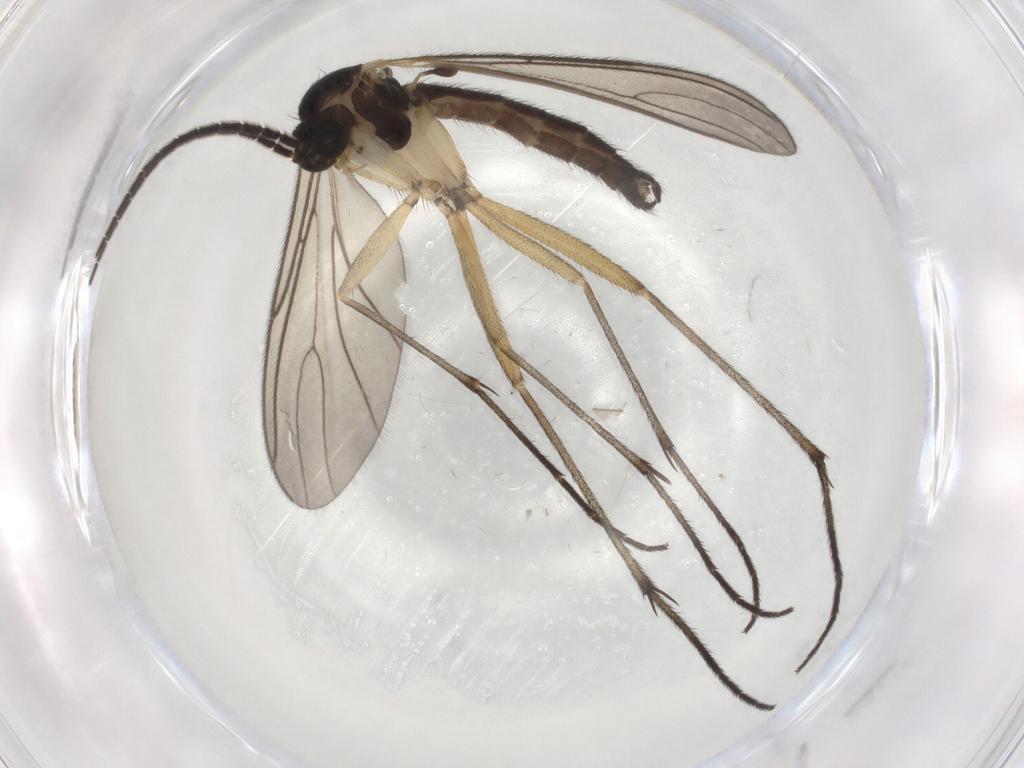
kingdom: Animalia
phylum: Arthropoda
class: Insecta
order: Diptera
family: Sciaridae
